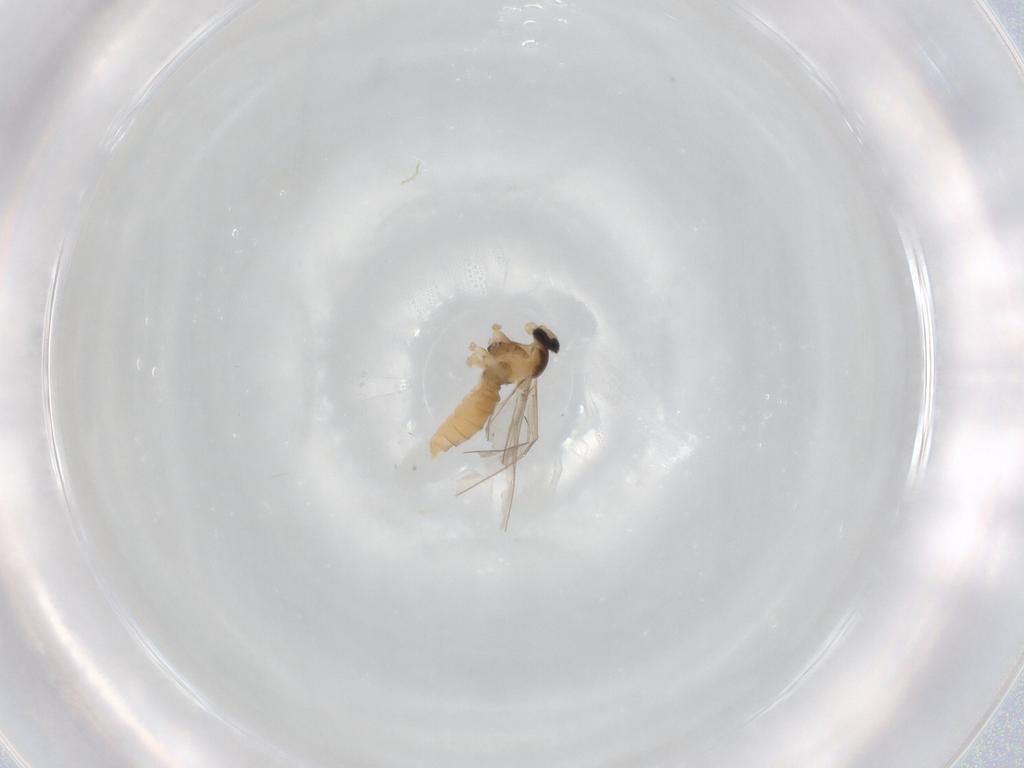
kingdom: Animalia
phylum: Arthropoda
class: Insecta
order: Diptera
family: Cecidomyiidae
